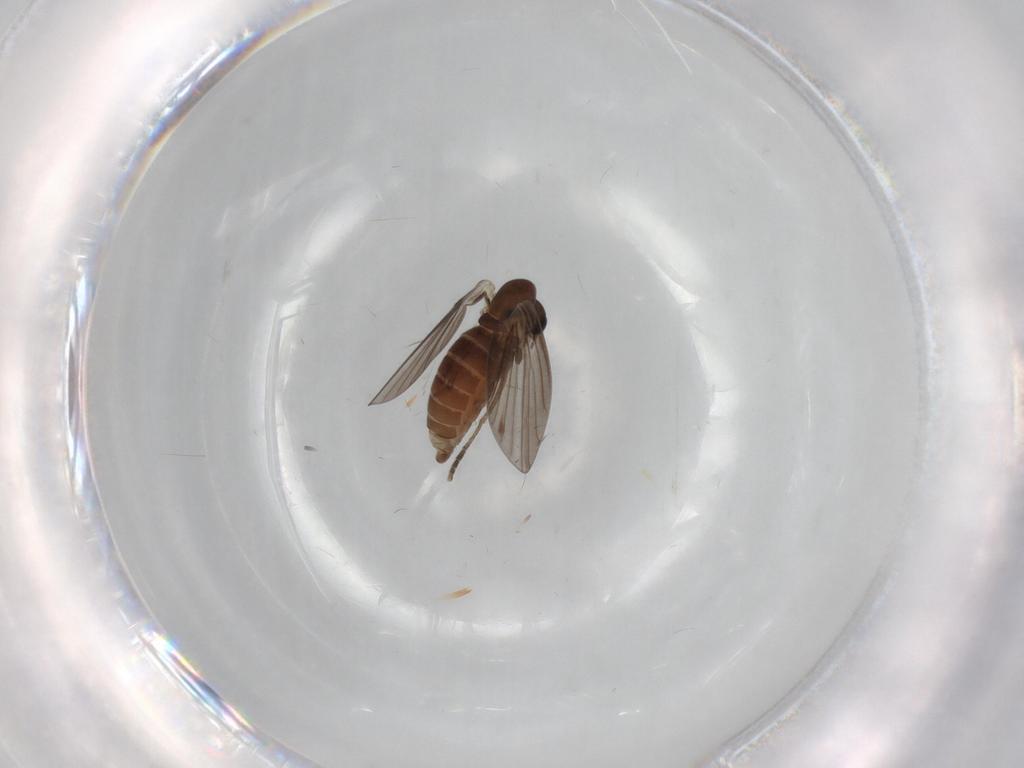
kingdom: Animalia
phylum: Arthropoda
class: Insecta
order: Diptera
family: Psychodidae
